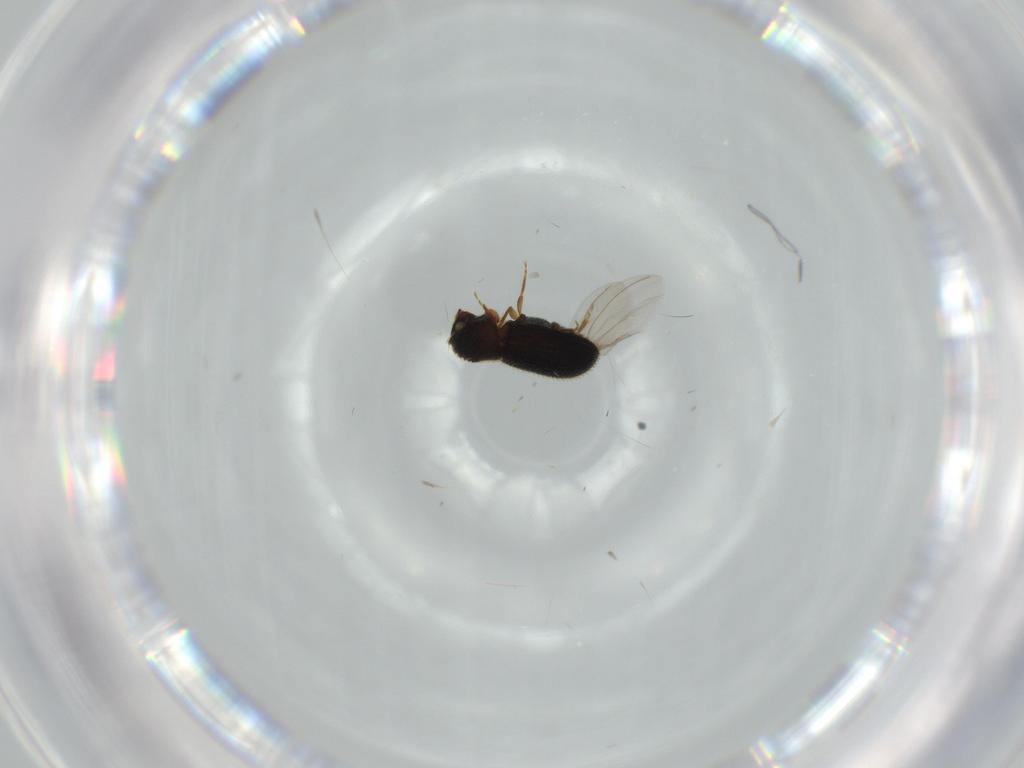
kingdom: Animalia
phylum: Arthropoda
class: Insecta
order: Coleoptera
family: Curculionidae
